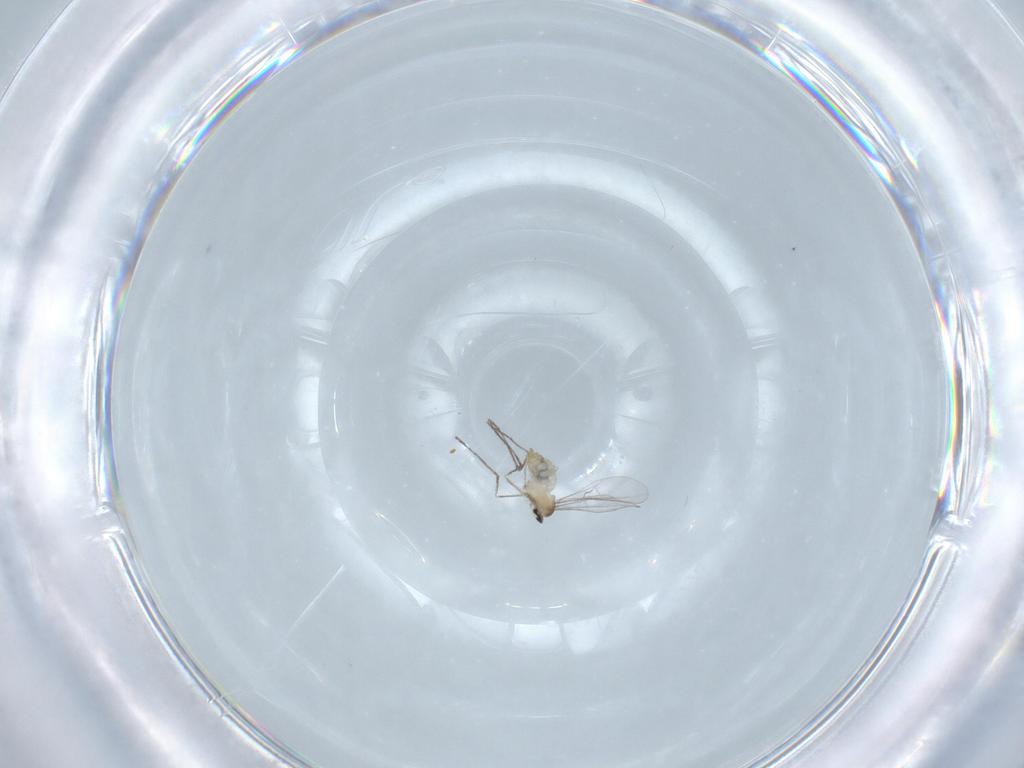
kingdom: Animalia
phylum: Arthropoda
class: Insecta
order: Diptera
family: Cecidomyiidae
